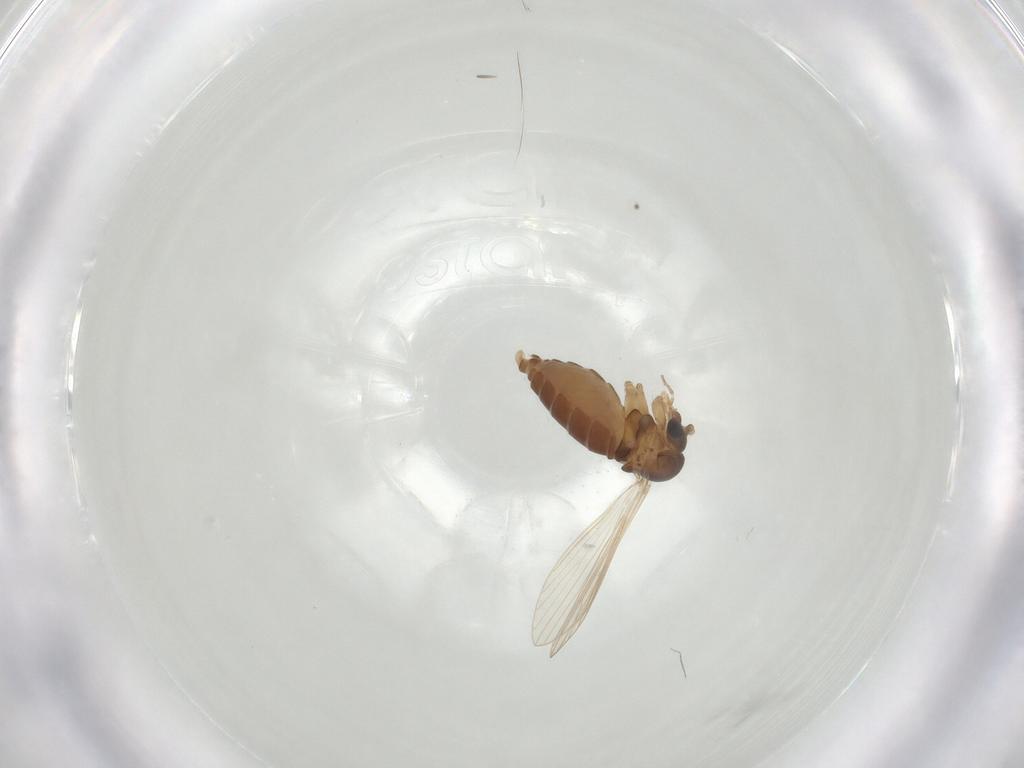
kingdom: Animalia
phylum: Arthropoda
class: Insecta
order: Diptera
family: Psychodidae
